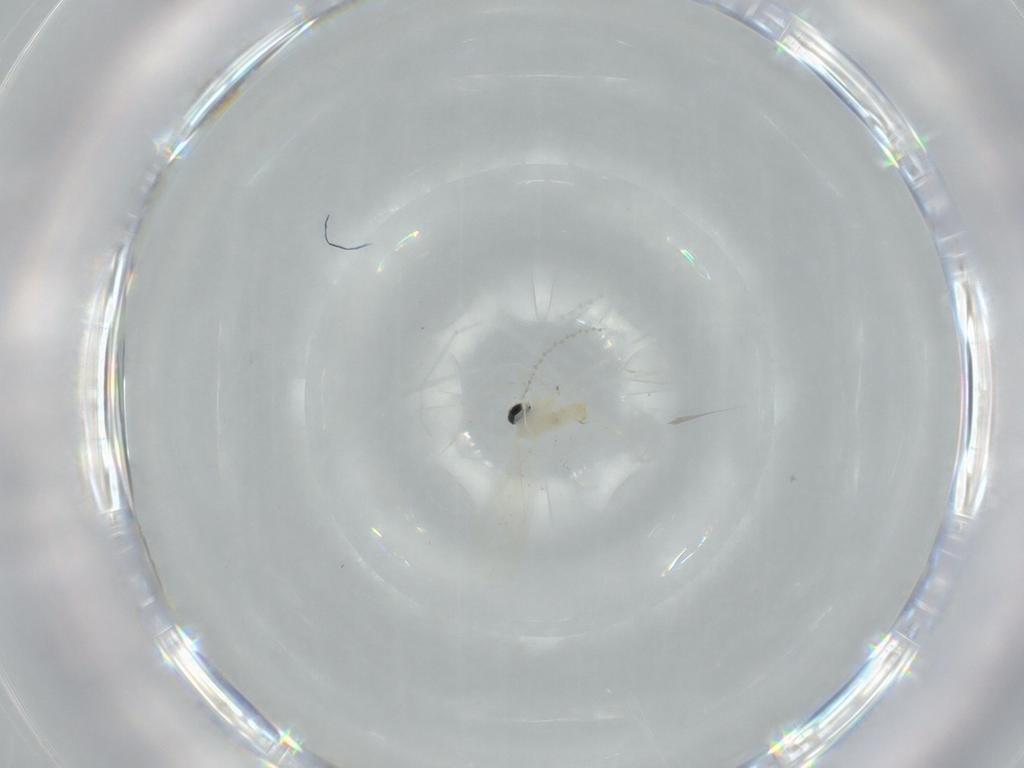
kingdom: Animalia
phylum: Arthropoda
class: Insecta
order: Diptera
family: Cecidomyiidae
